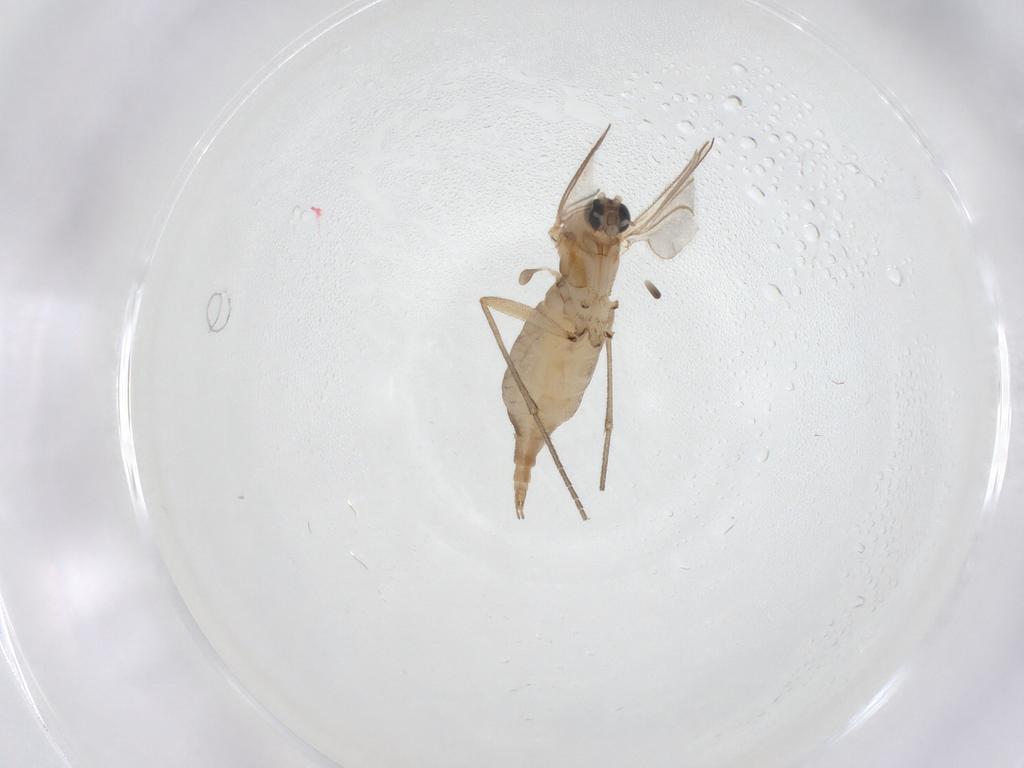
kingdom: Animalia
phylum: Arthropoda
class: Insecta
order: Diptera
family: Sciaridae
